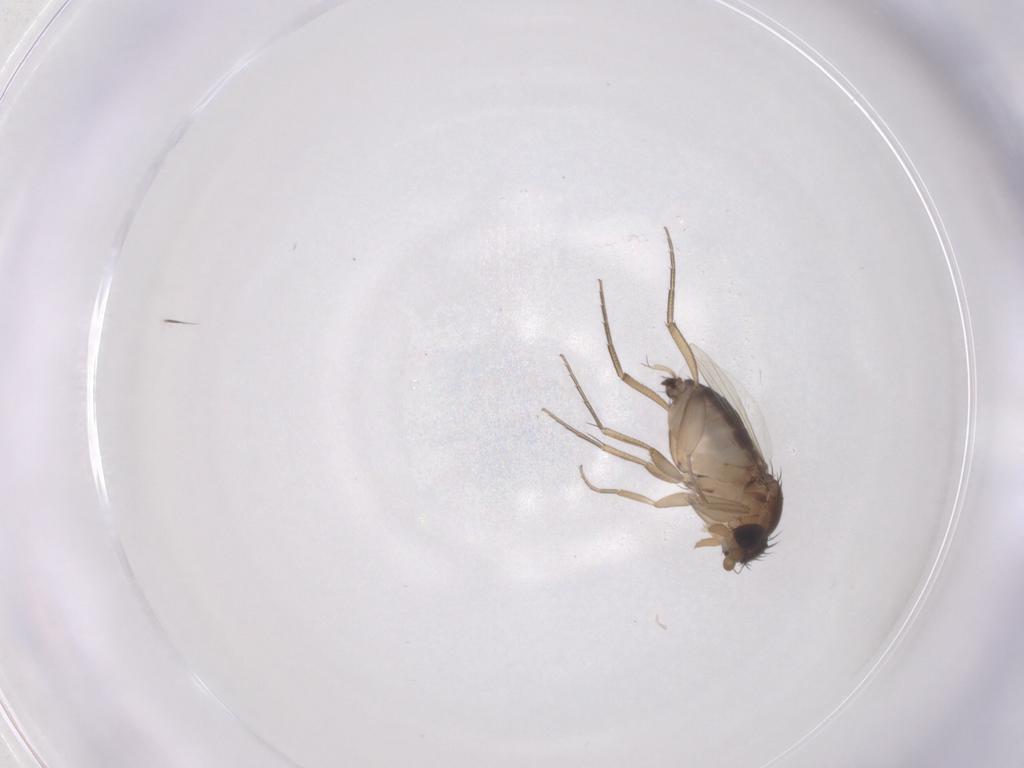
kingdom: Animalia
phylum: Arthropoda
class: Insecta
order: Diptera
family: Phoridae
